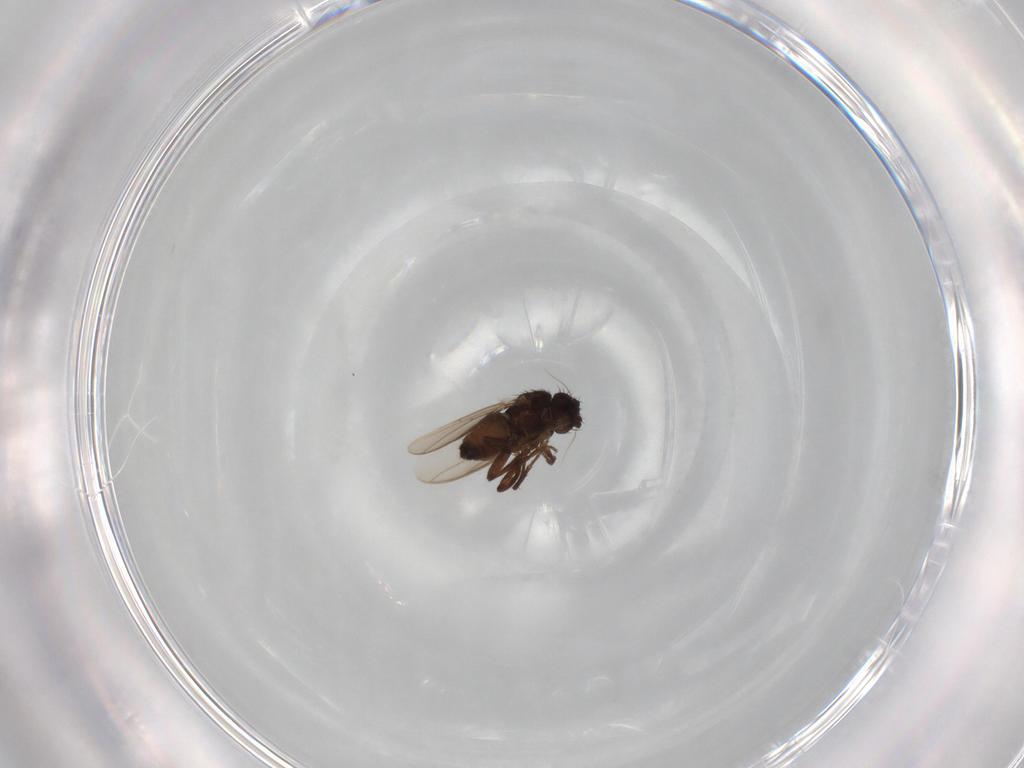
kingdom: Animalia
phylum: Arthropoda
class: Insecta
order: Diptera
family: Sphaeroceridae
